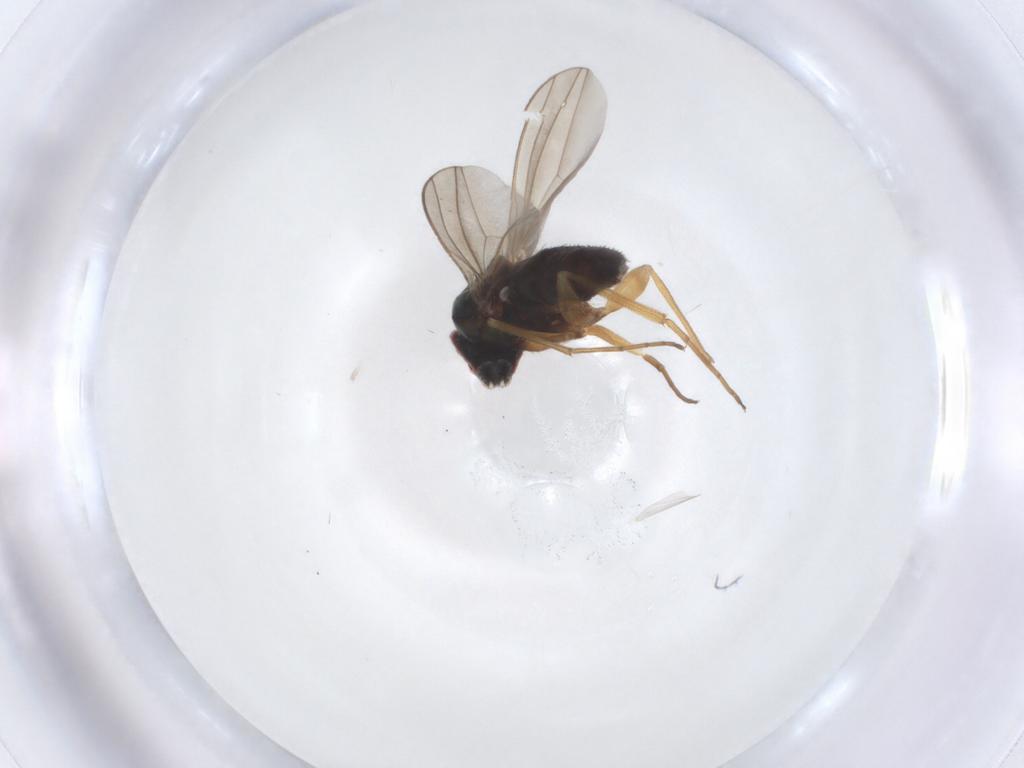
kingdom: Animalia
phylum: Arthropoda
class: Insecta
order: Diptera
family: Dolichopodidae
